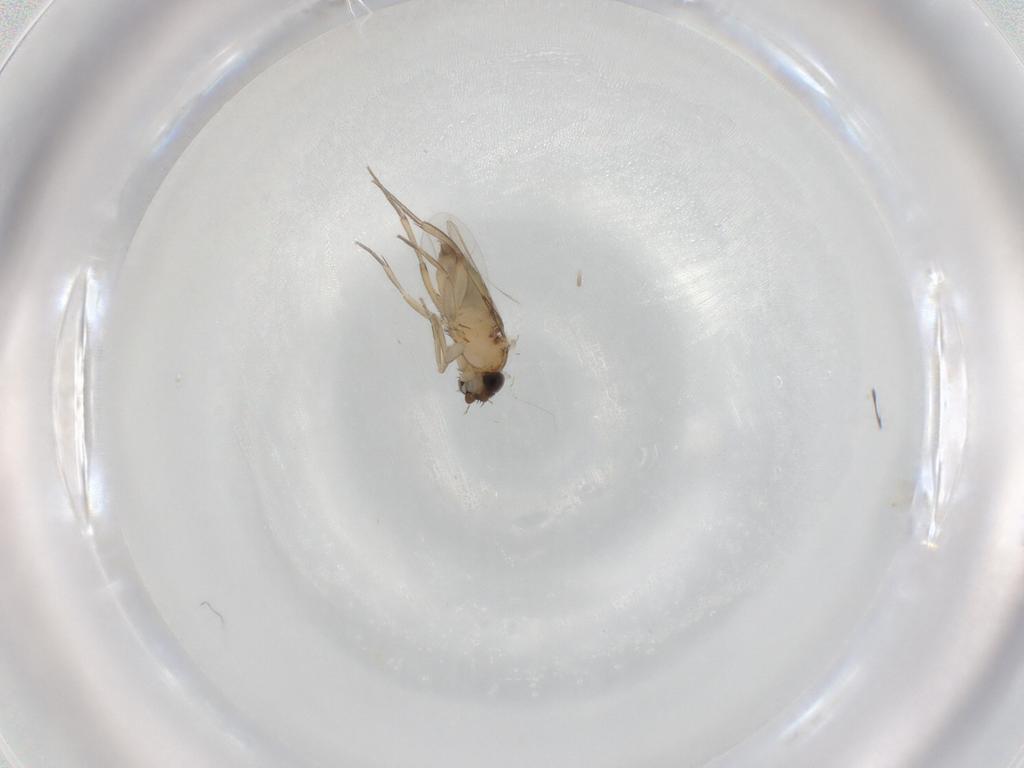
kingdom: Animalia
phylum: Arthropoda
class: Insecta
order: Diptera
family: Phoridae
